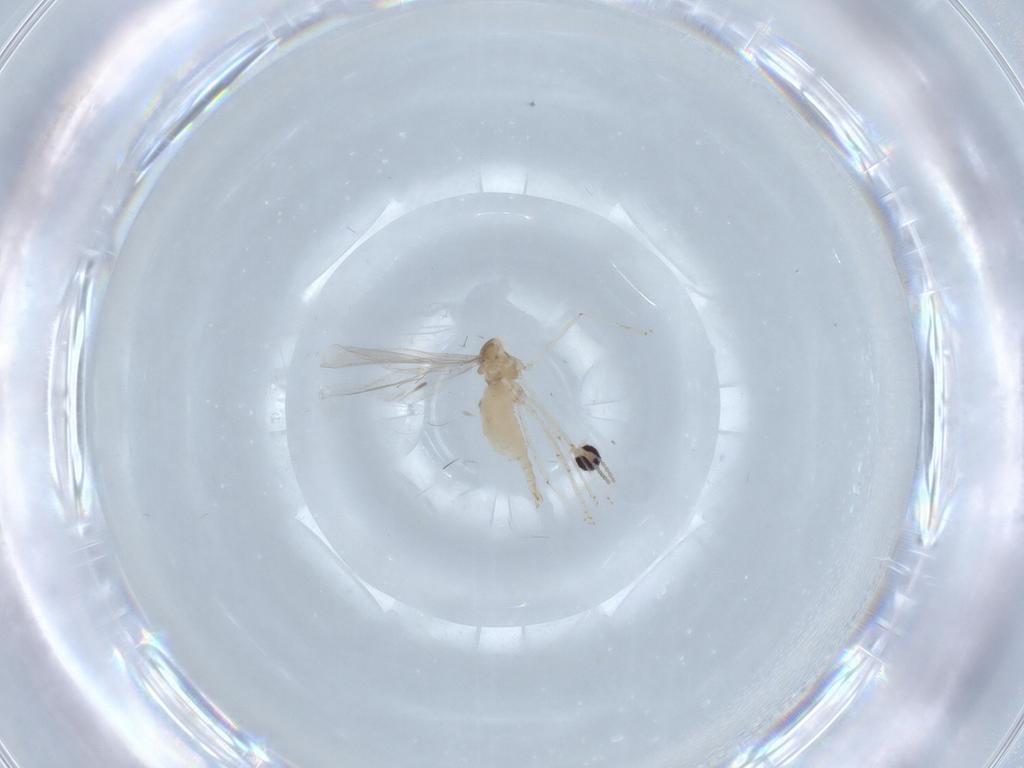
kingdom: Animalia
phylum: Arthropoda
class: Insecta
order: Diptera
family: Cecidomyiidae
